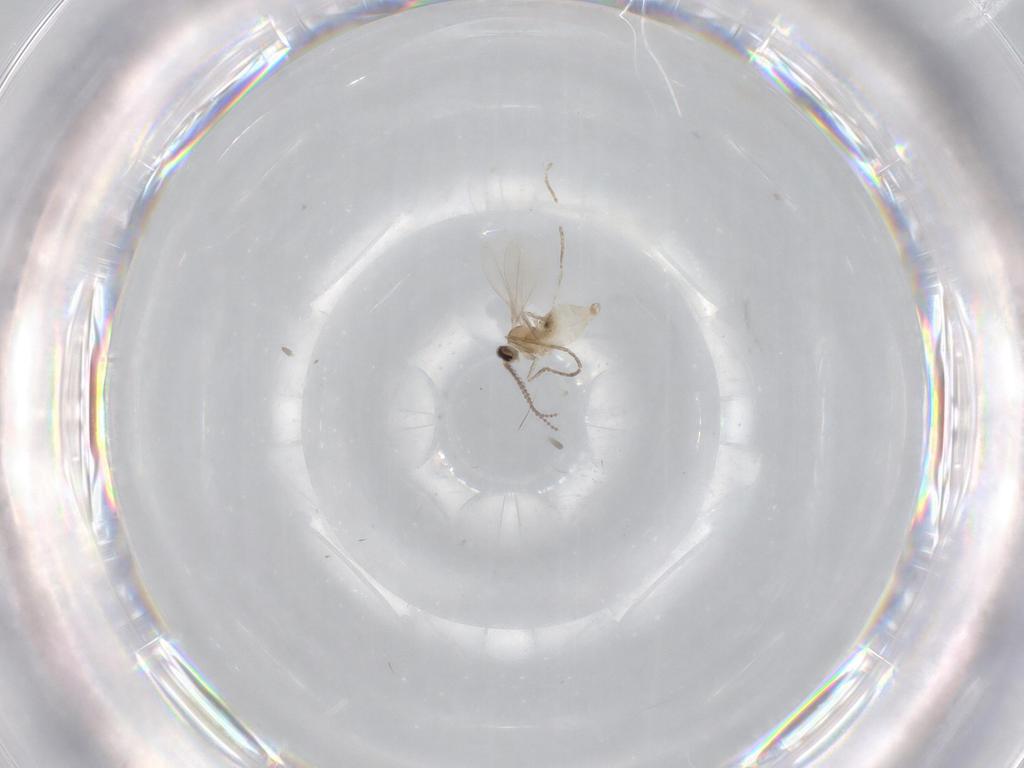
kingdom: Animalia
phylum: Arthropoda
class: Insecta
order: Diptera
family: Cecidomyiidae
